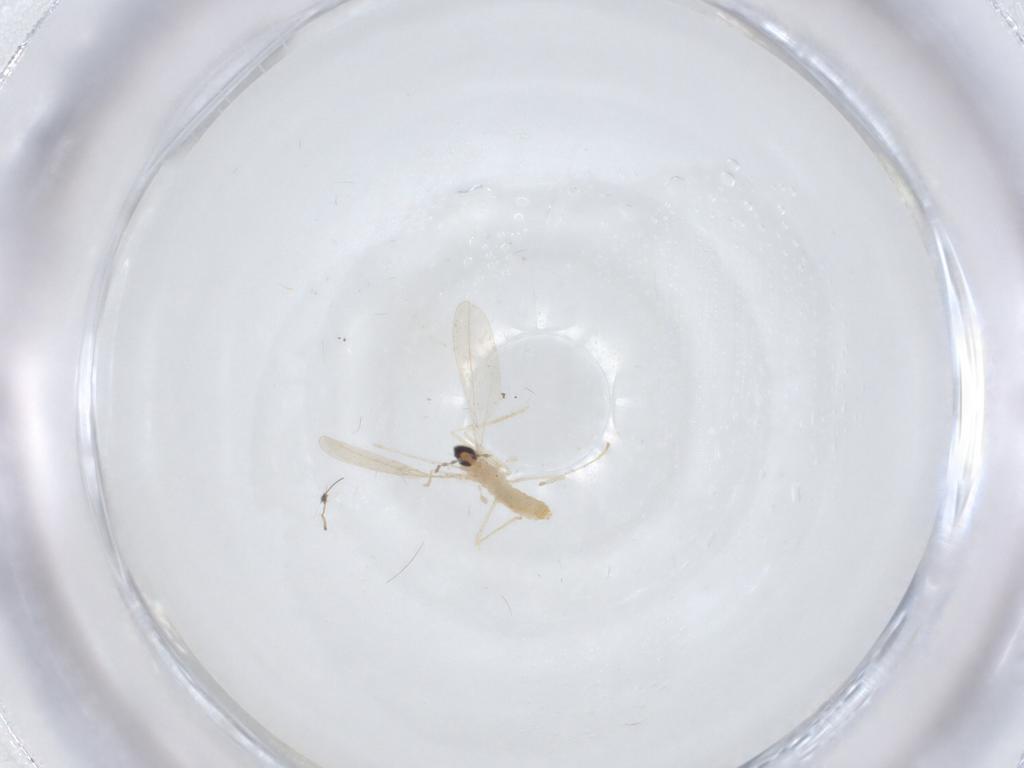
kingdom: Animalia
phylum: Arthropoda
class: Insecta
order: Diptera
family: Cecidomyiidae
